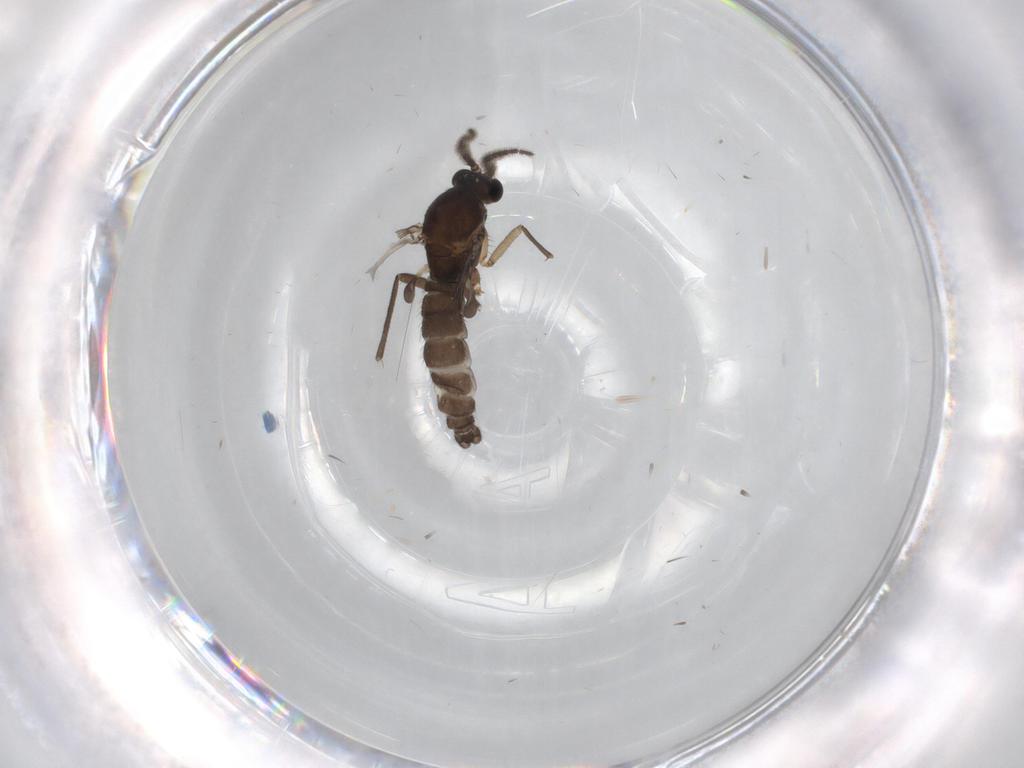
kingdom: Animalia
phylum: Arthropoda
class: Insecta
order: Diptera
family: Sciaridae
